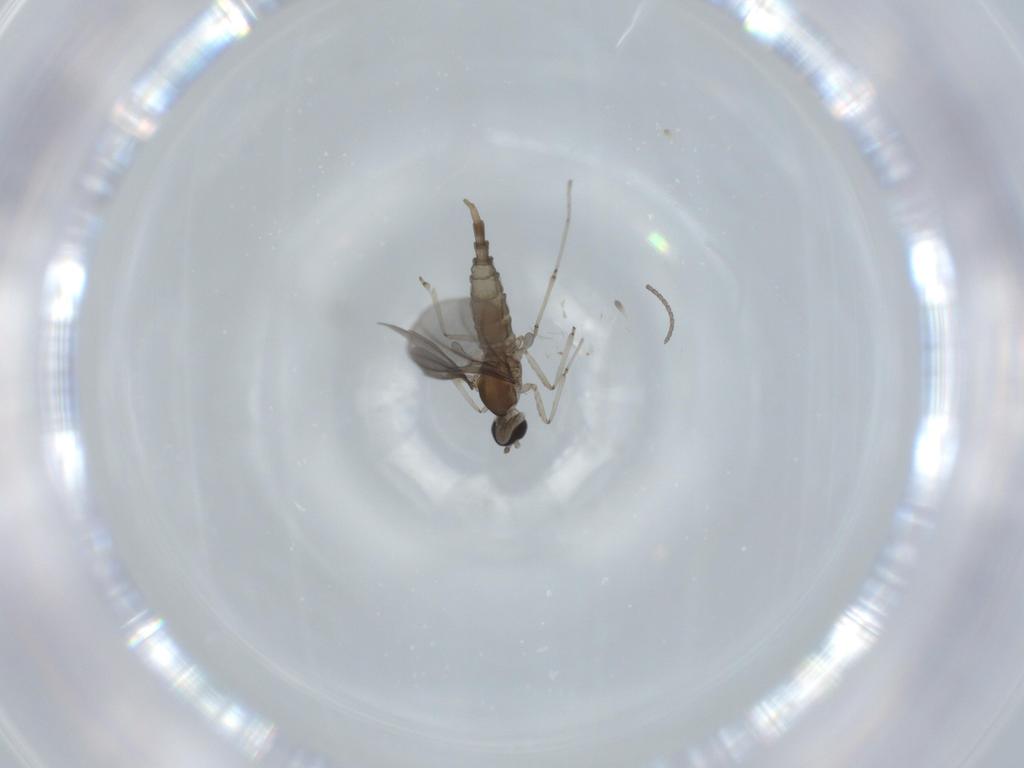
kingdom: Animalia
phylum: Arthropoda
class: Insecta
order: Diptera
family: Cecidomyiidae
